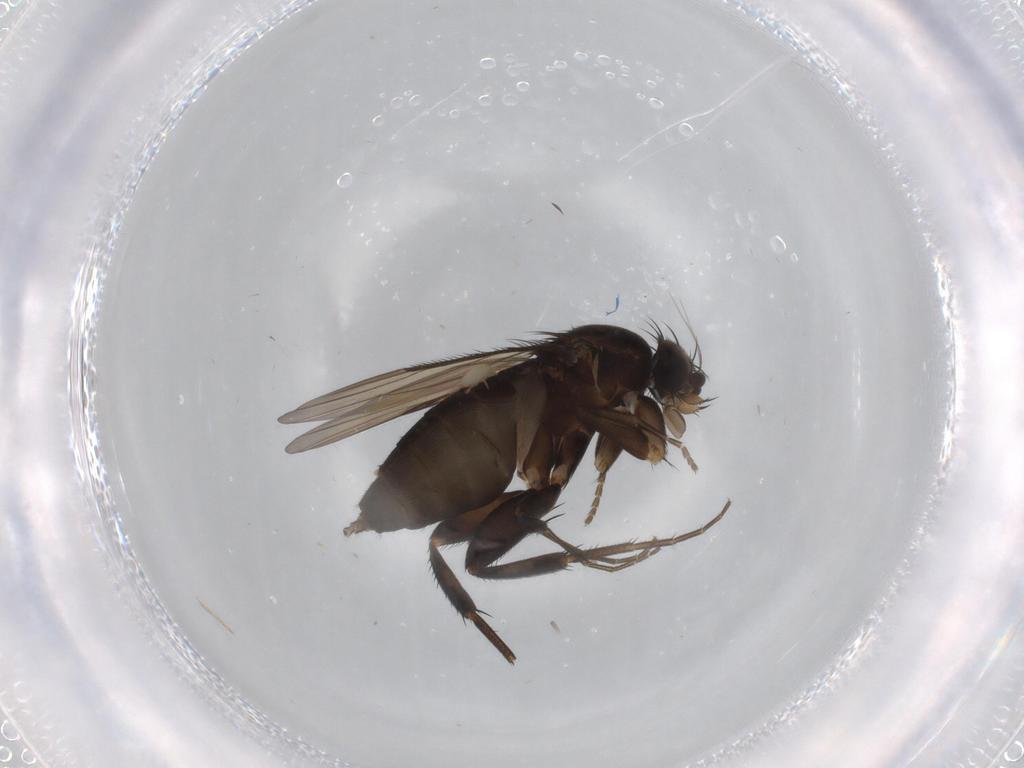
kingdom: Animalia
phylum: Arthropoda
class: Insecta
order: Diptera
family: Phoridae
